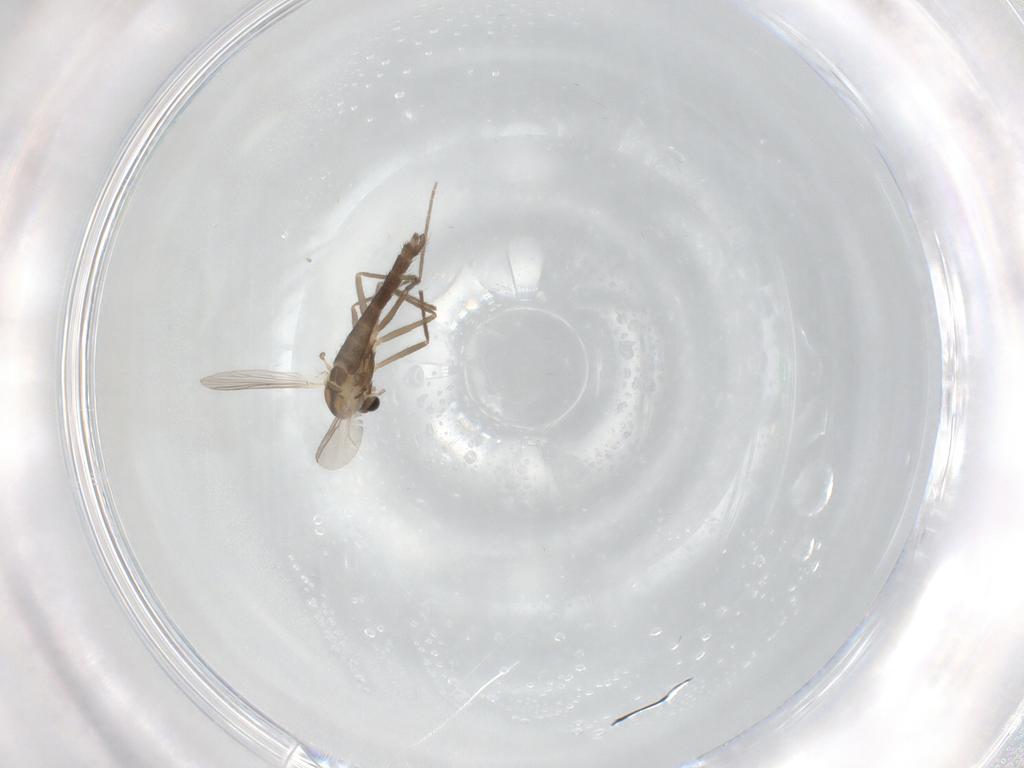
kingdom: Animalia
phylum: Arthropoda
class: Insecta
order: Diptera
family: Chironomidae
